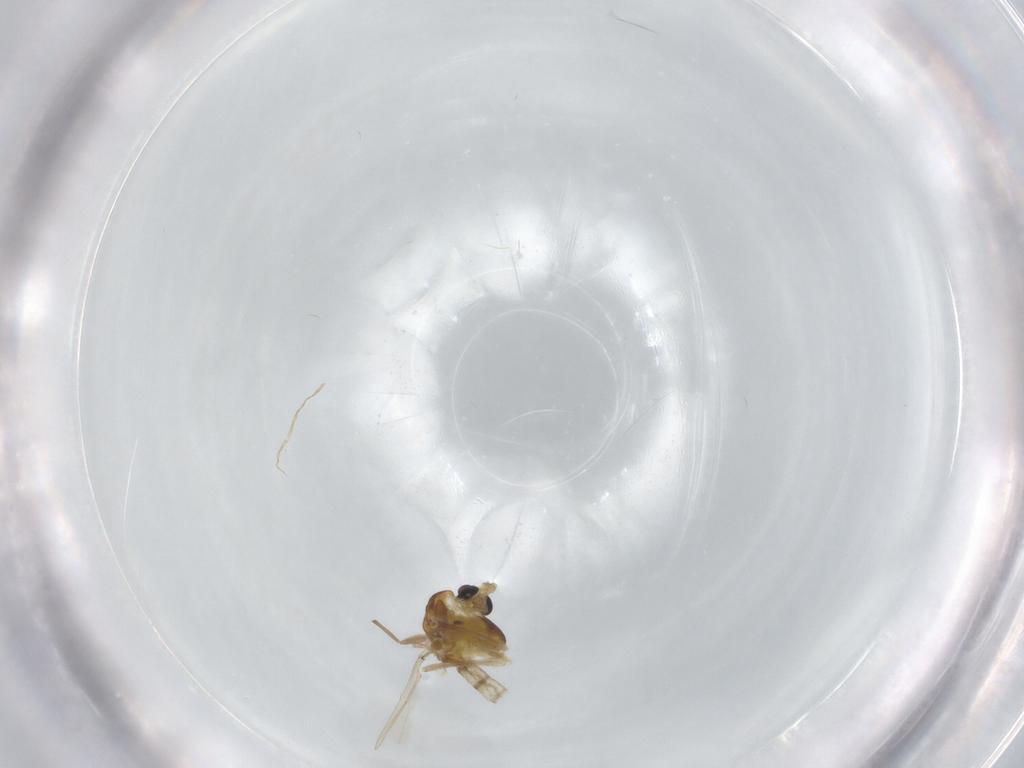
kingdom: Animalia
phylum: Arthropoda
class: Insecta
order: Diptera
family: Chironomidae
